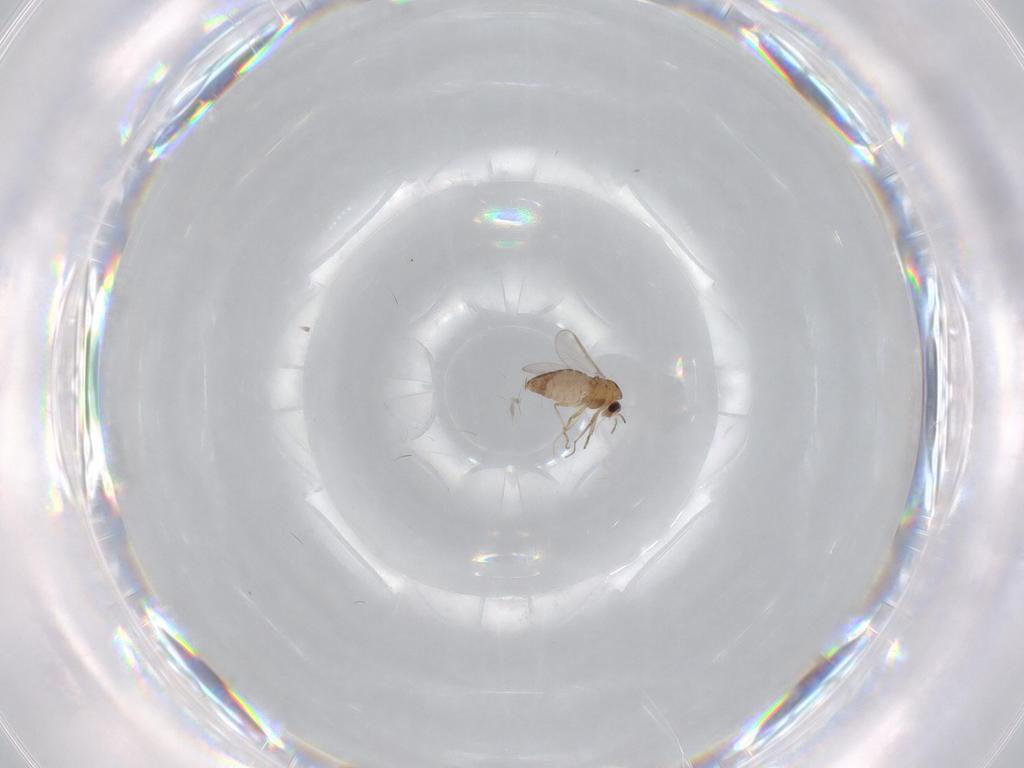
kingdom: Animalia
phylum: Arthropoda
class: Insecta
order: Diptera
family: Chironomidae
